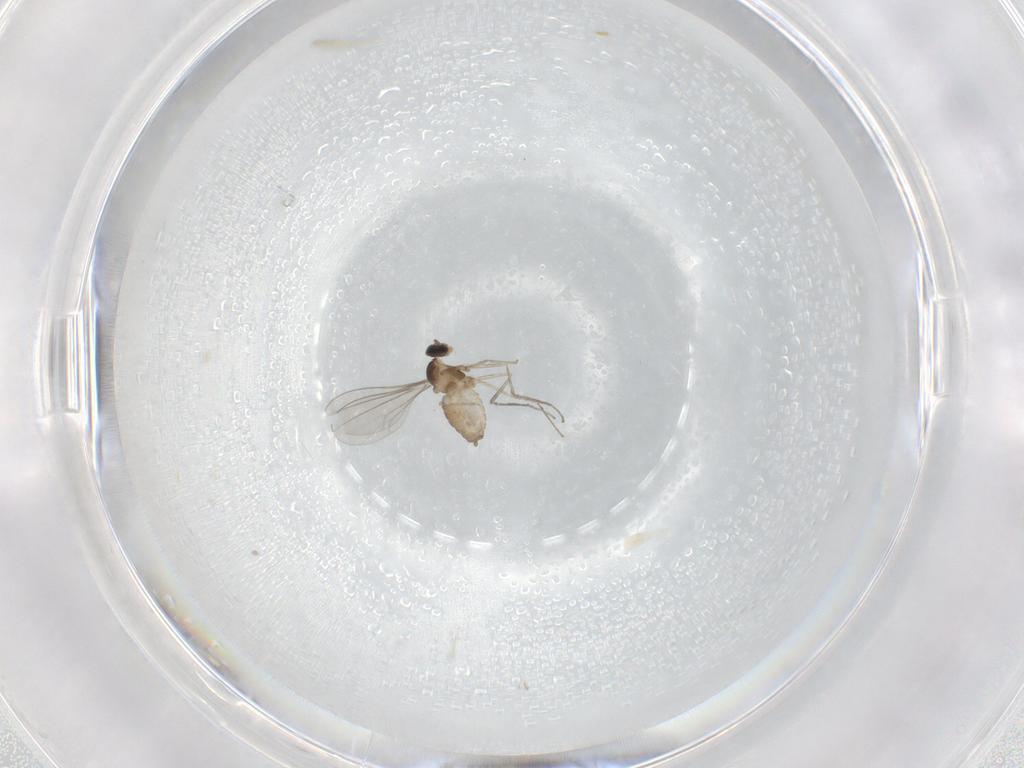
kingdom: Animalia
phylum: Arthropoda
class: Insecta
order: Diptera
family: Cecidomyiidae
